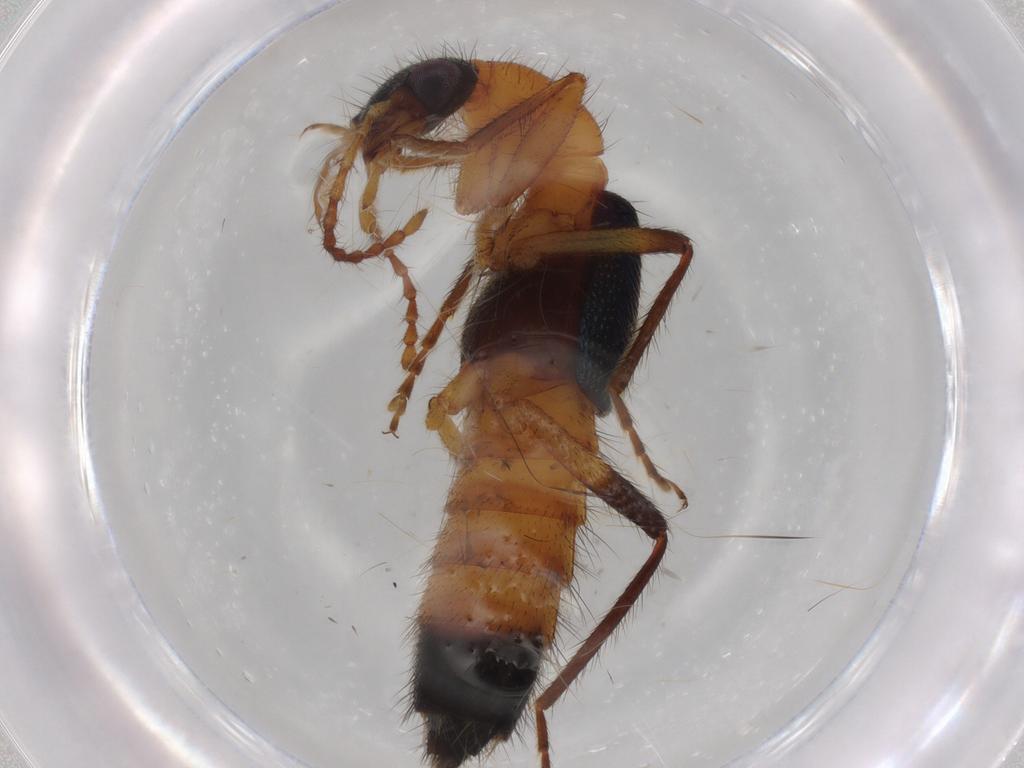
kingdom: Animalia
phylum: Arthropoda
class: Insecta
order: Coleoptera
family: Staphylinidae
